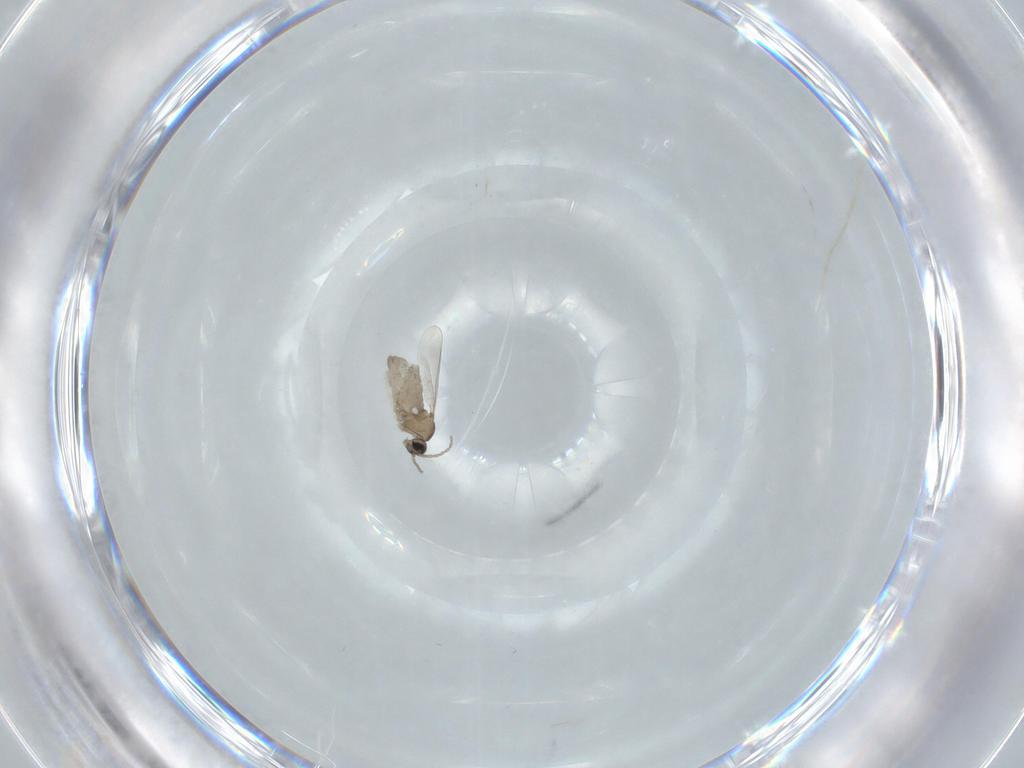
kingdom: Animalia
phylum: Arthropoda
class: Insecta
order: Diptera
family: Cecidomyiidae
